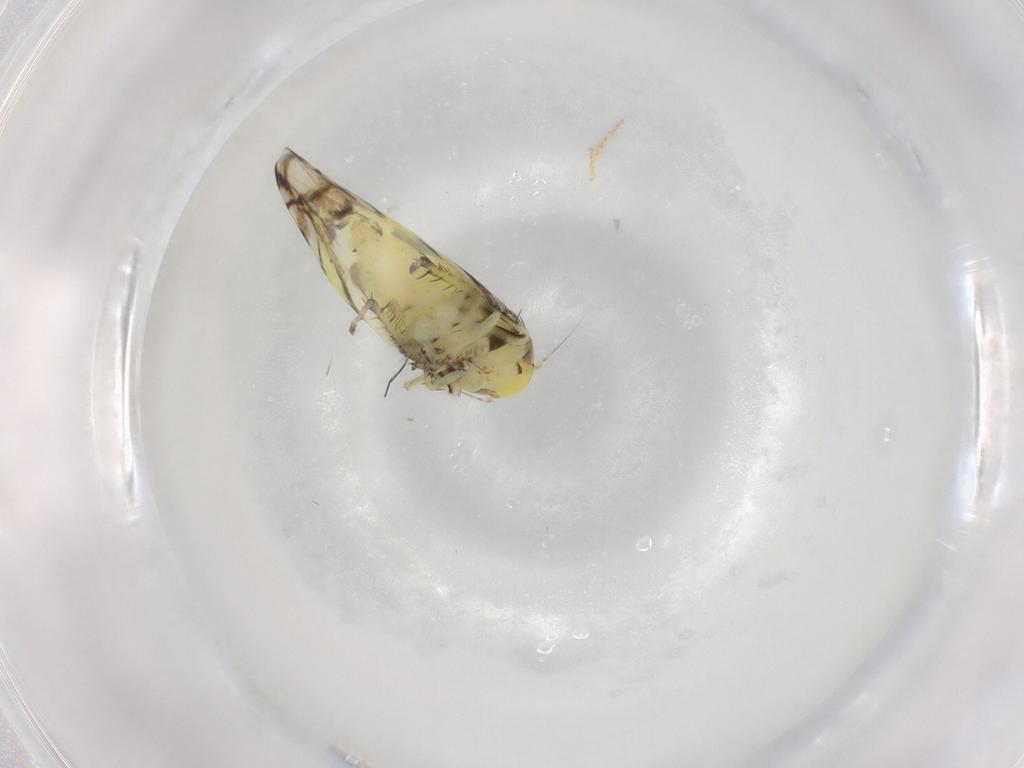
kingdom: Animalia
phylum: Arthropoda
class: Insecta
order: Hemiptera
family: Cicadellidae
